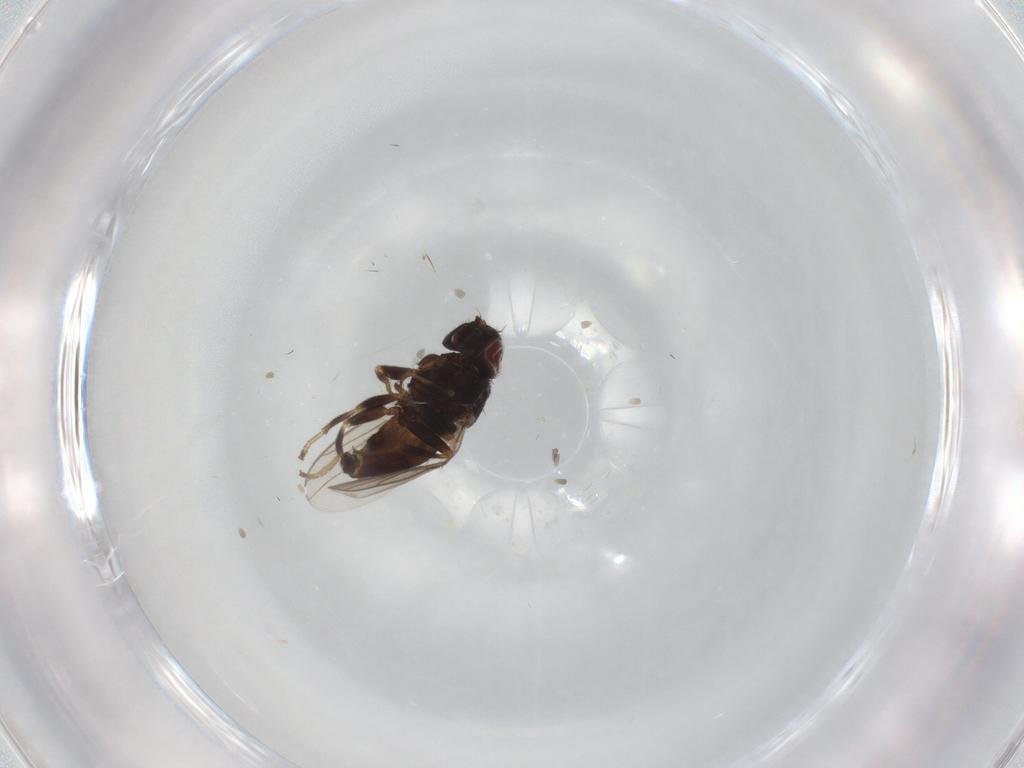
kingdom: Animalia
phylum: Arthropoda
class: Insecta
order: Diptera
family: Chloropidae
